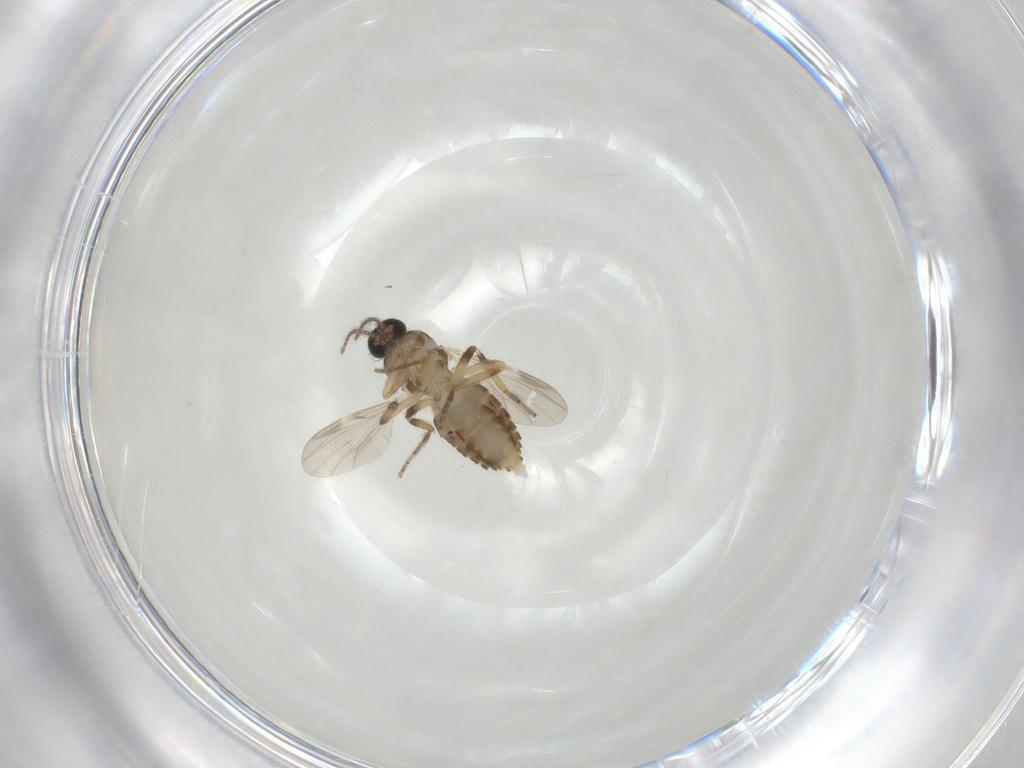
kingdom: Animalia
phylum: Arthropoda
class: Insecta
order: Diptera
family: Ceratopogonidae
